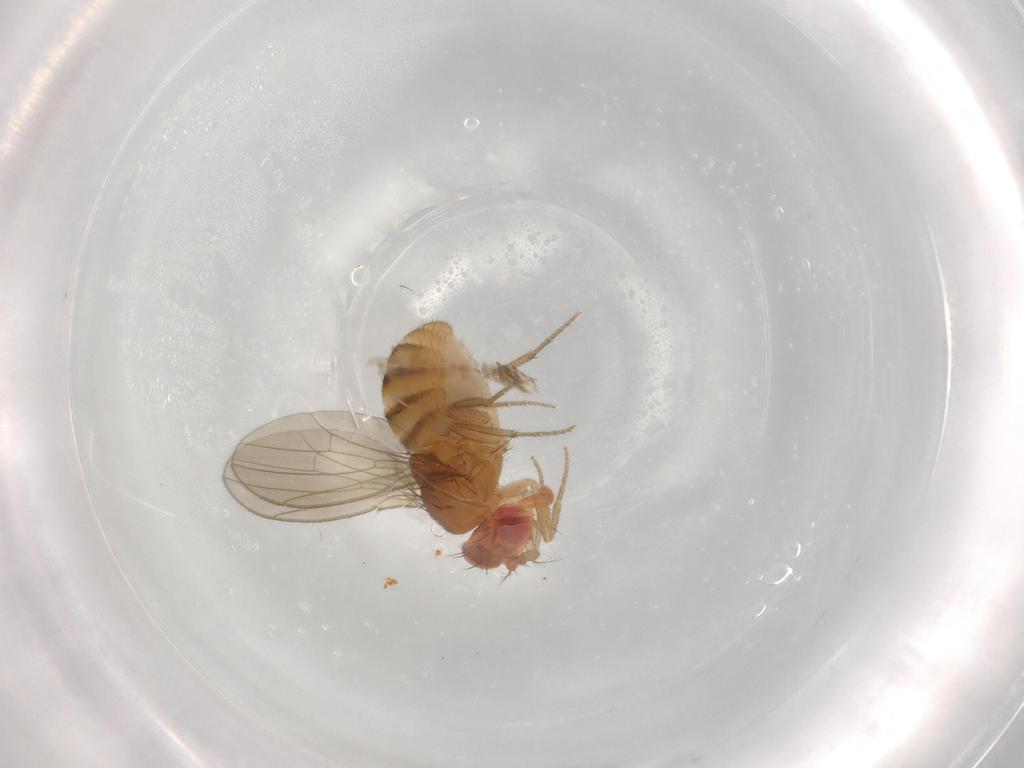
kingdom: Animalia
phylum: Arthropoda
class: Insecta
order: Diptera
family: Drosophilidae
